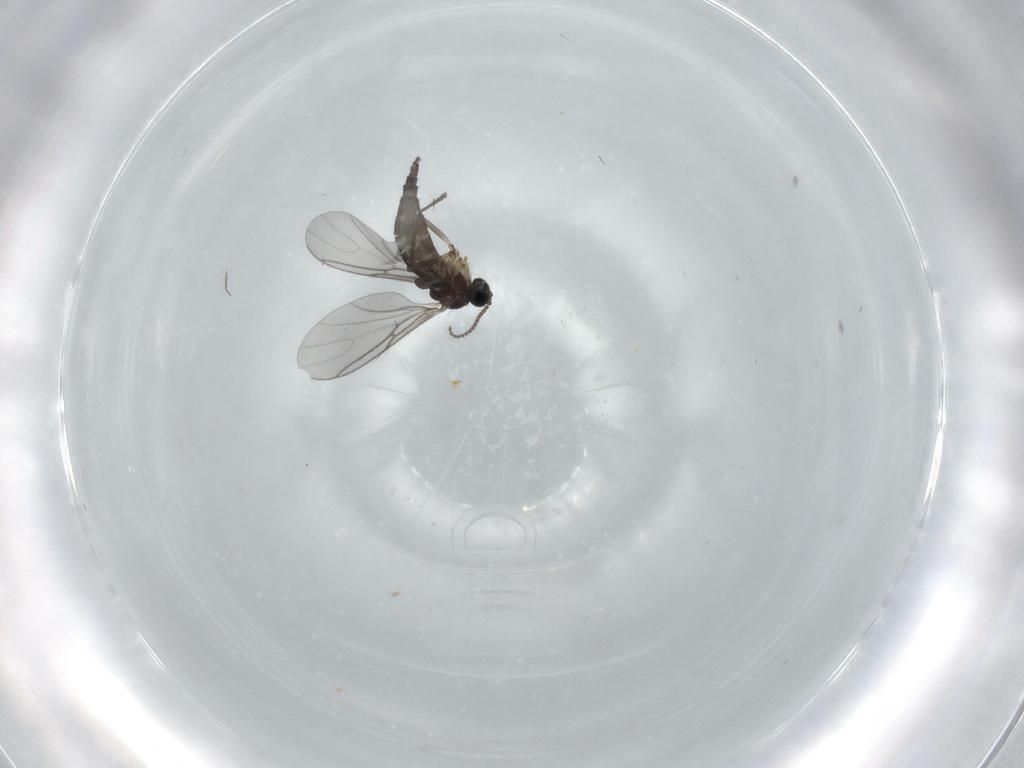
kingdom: Animalia
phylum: Arthropoda
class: Insecta
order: Diptera
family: Sciaridae
